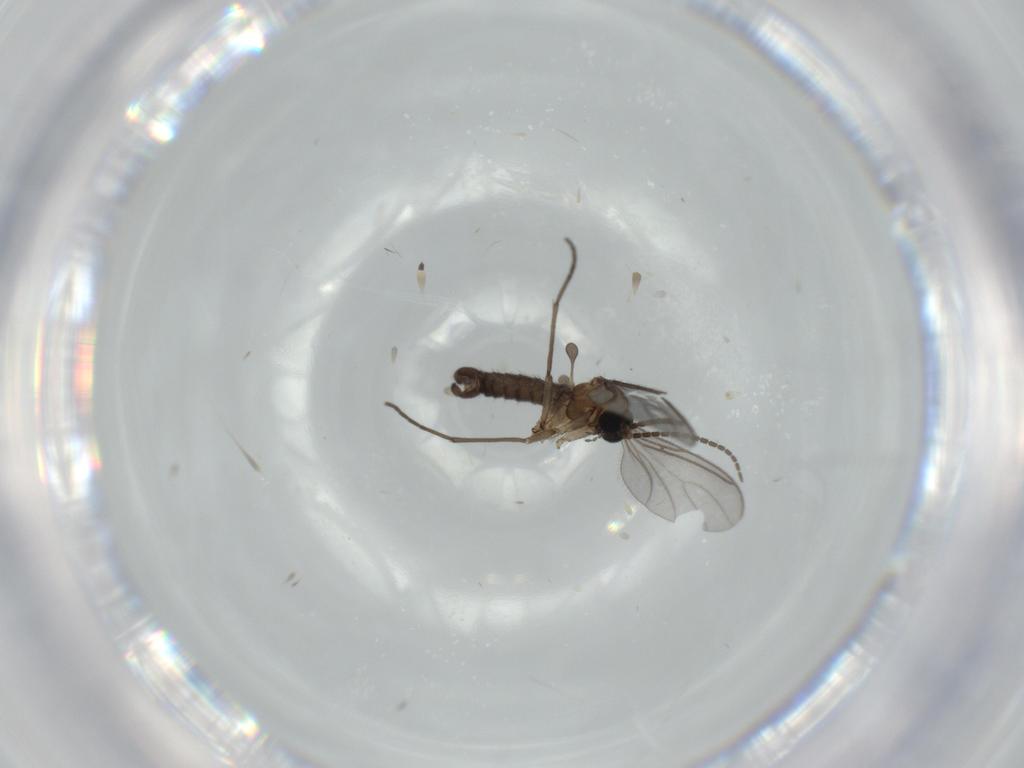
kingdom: Animalia
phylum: Arthropoda
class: Insecta
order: Diptera
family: Sciaridae
